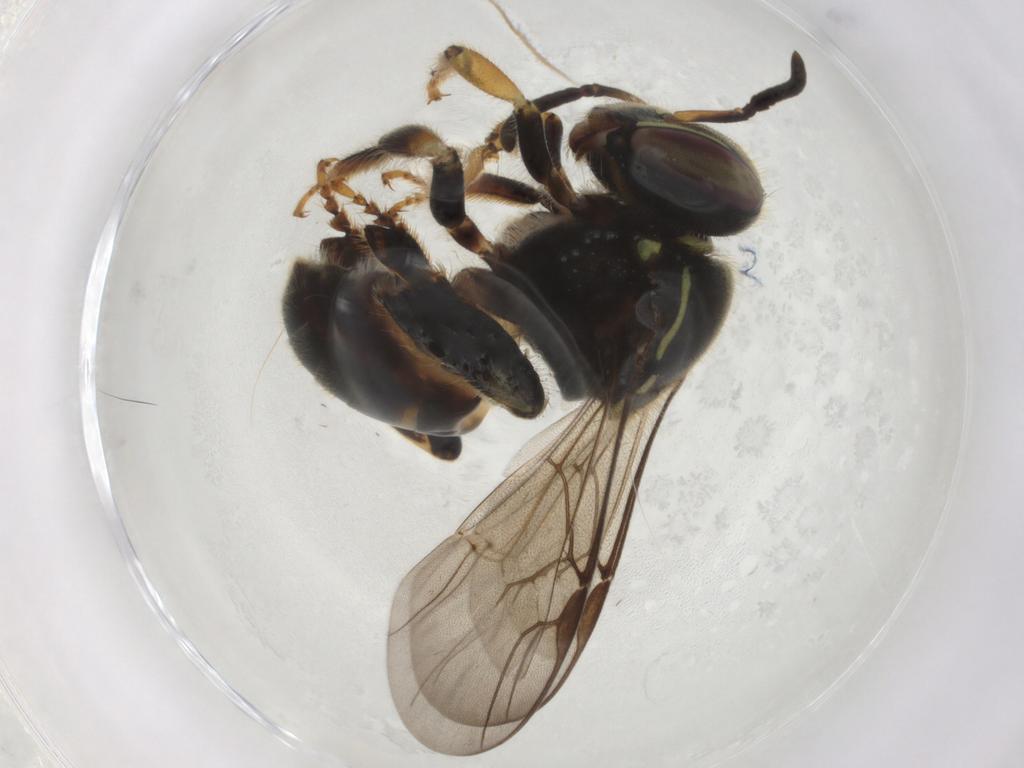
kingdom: Animalia
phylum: Arthropoda
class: Insecta
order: Hymenoptera
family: Apidae
